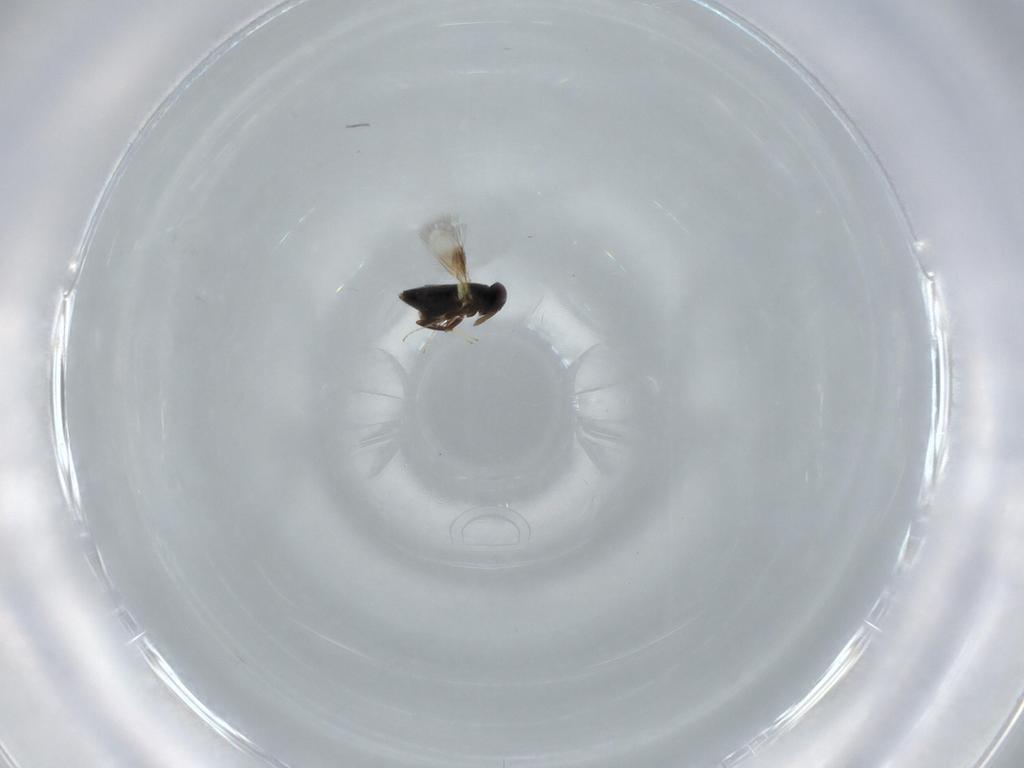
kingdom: Animalia
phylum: Arthropoda
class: Insecta
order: Hymenoptera
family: Signiphoridae
